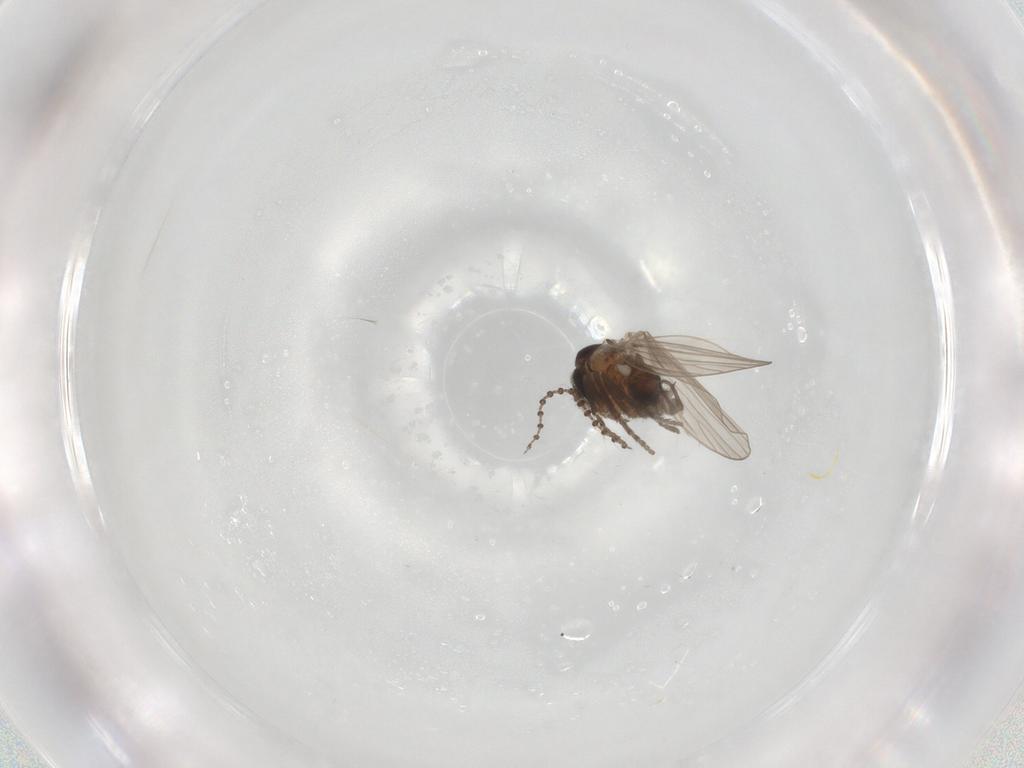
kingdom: Animalia
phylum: Arthropoda
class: Insecta
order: Diptera
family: Psychodidae
